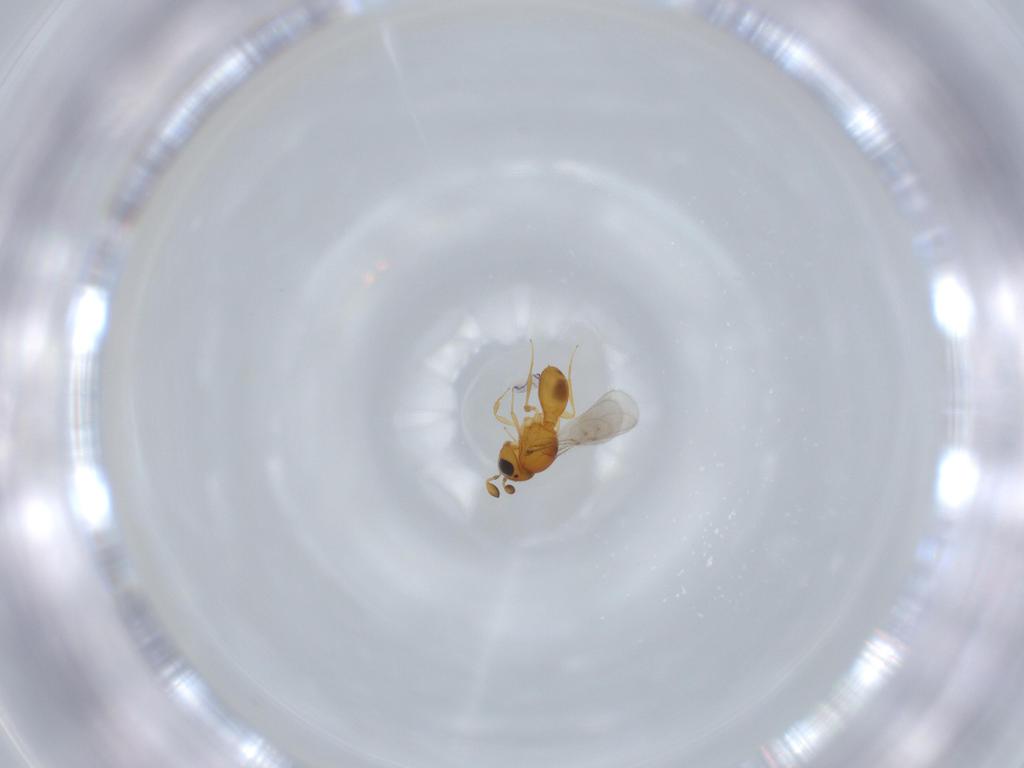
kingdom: Animalia
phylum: Arthropoda
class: Insecta
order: Hymenoptera
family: Scelionidae
